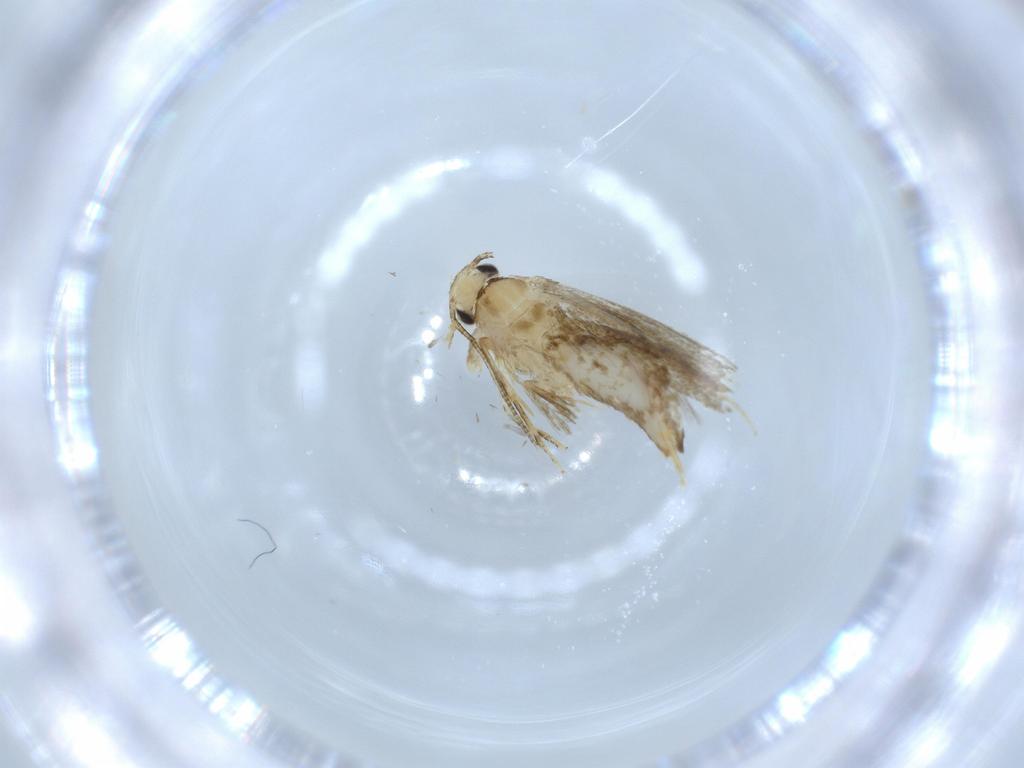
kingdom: Animalia
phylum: Arthropoda
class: Insecta
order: Lepidoptera
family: Tineidae
